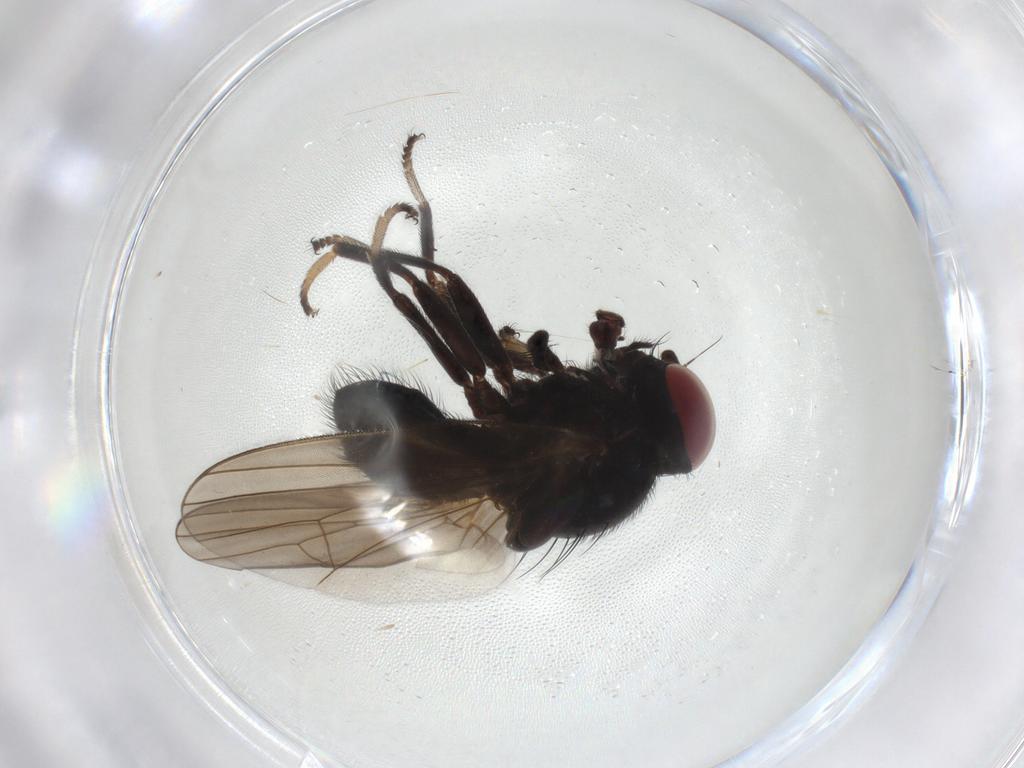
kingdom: Animalia
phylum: Arthropoda
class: Insecta
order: Diptera
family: Lonchaeidae
